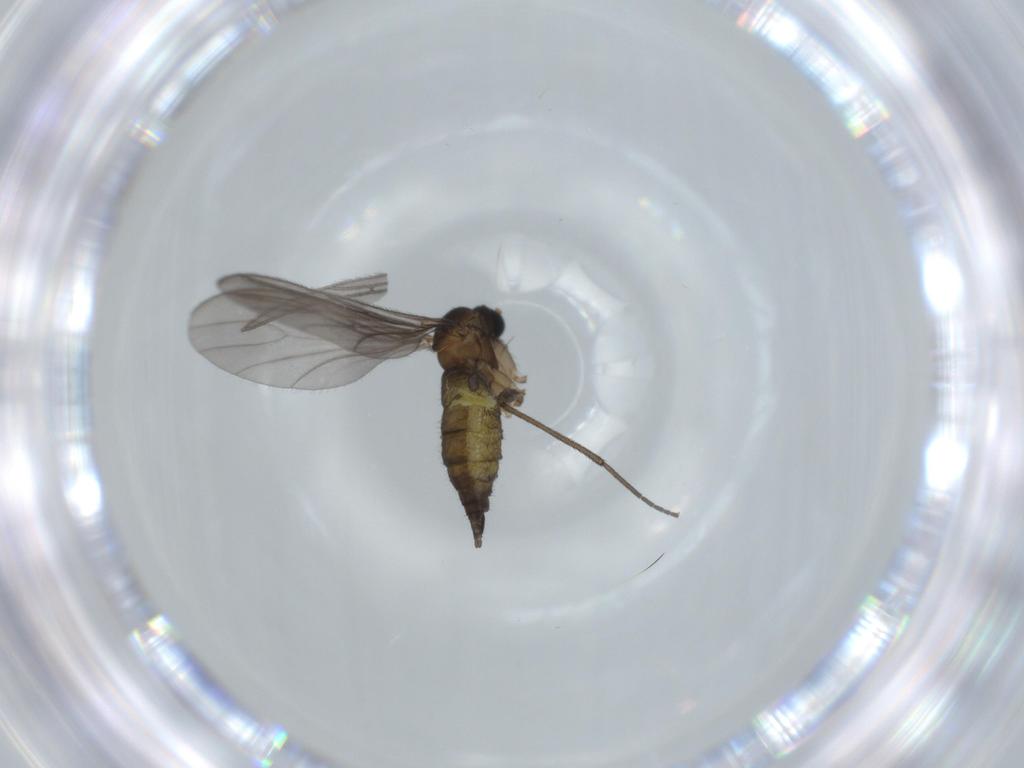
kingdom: Animalia
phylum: Arthropoda
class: Insecta
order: Diptera
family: Sciaridae
